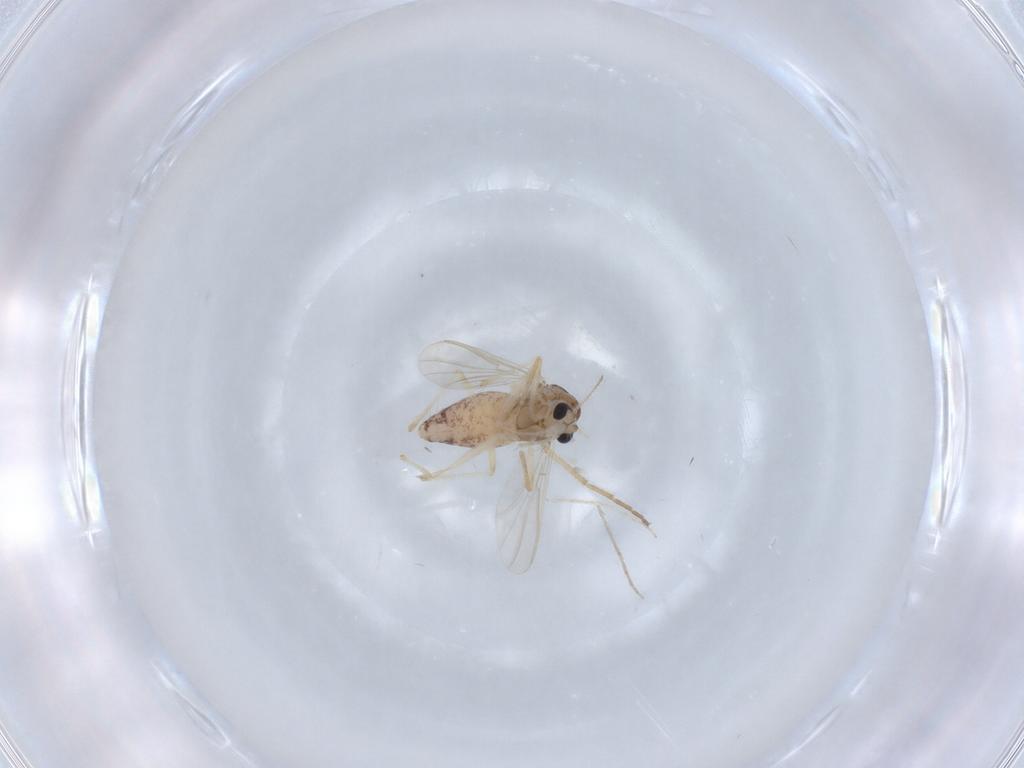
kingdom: Animalia
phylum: Arthropoda
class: Insecta
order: Diptera
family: Chironomidae
